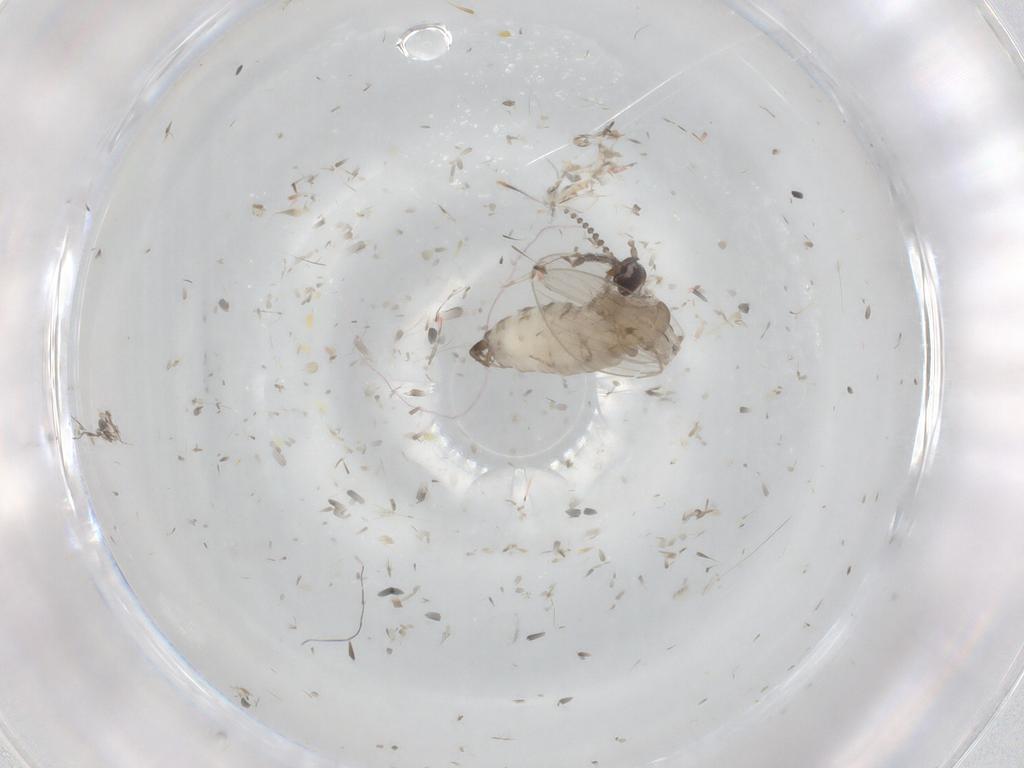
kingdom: Animalia
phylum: Arthropoda
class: Insecta
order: Diptera
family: Psychodidae
